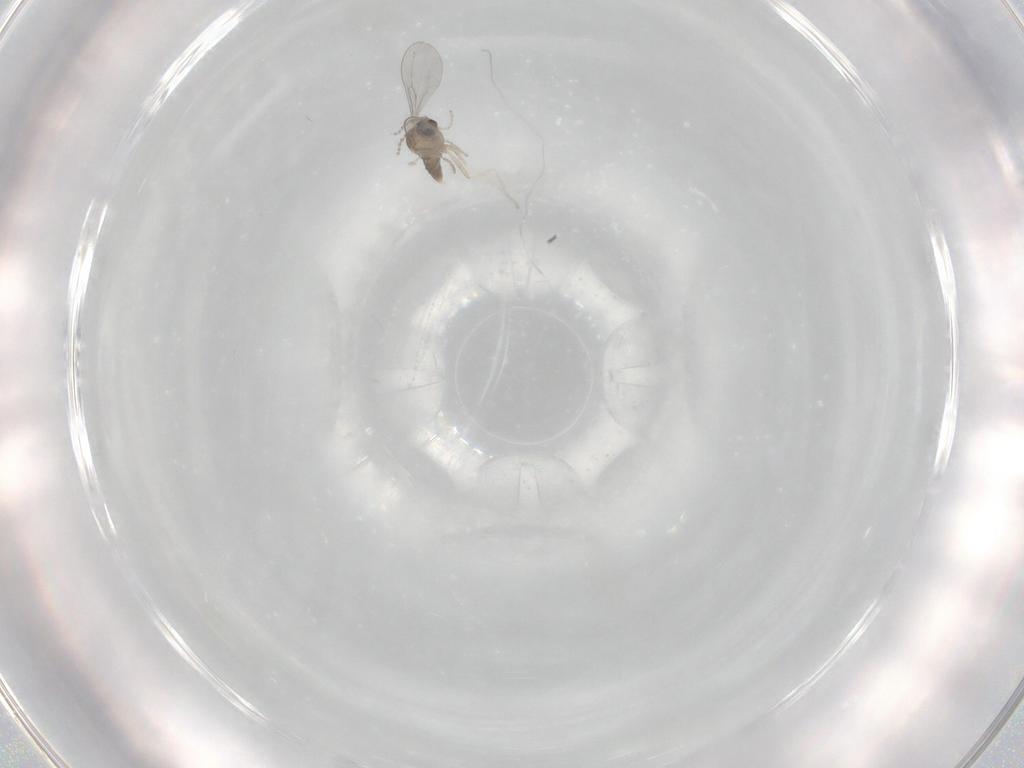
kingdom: Animalia
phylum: Arthropoda
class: Insecta
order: Diptera
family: Cecidomyiidae
